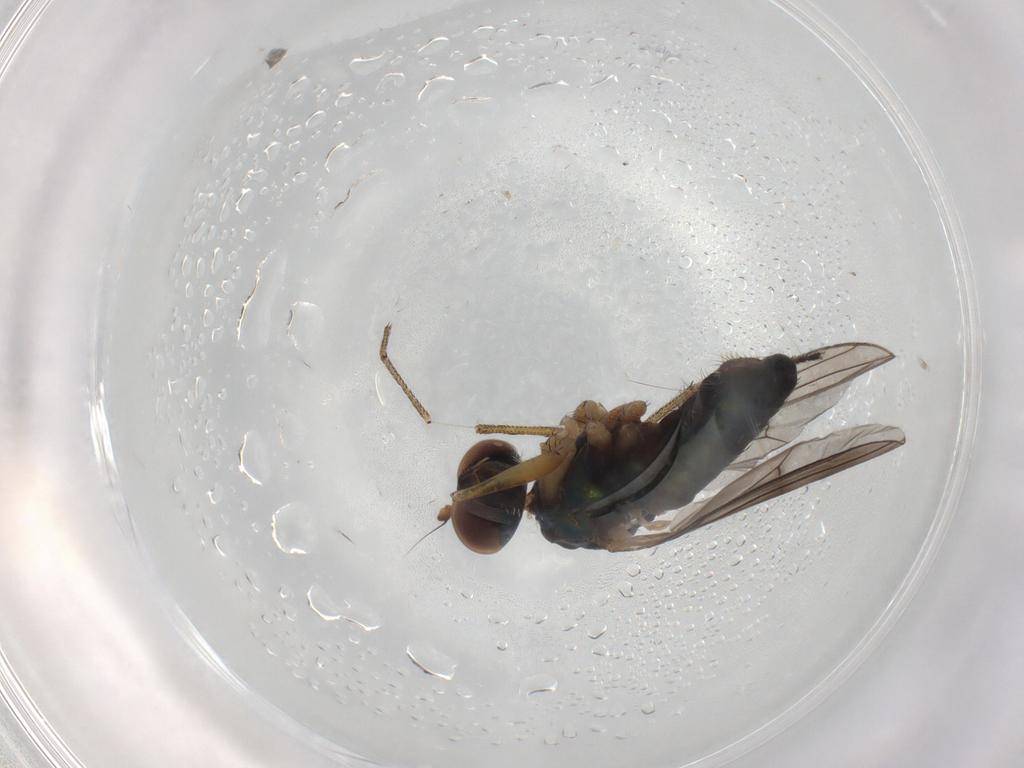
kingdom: Animalia
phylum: Arthropoda
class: Insecta
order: Diptera
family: Dolichopodidae
